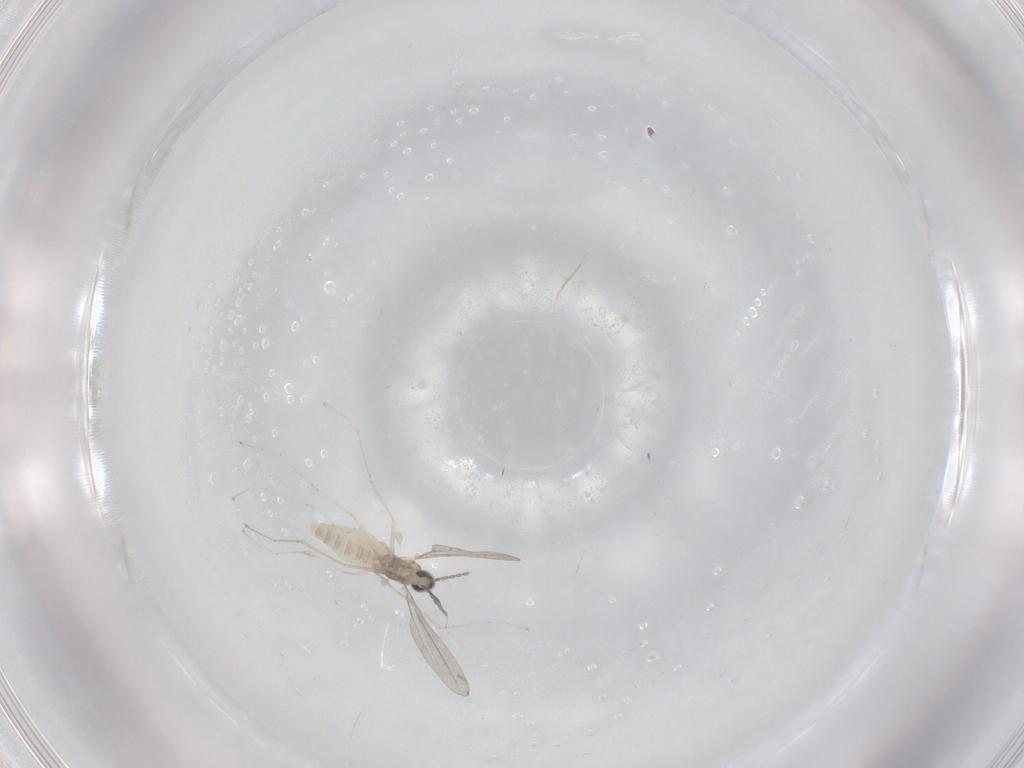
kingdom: Animalia
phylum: Arthropoda
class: Insecta
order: Diptera
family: Cecidomyiidae
